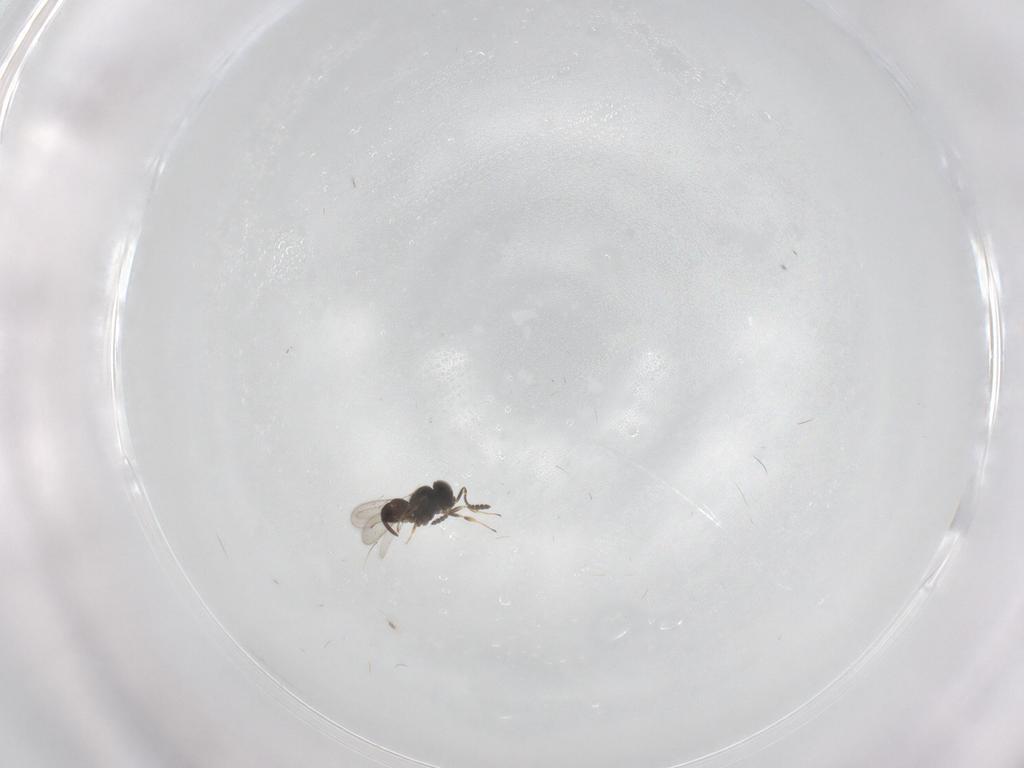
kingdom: Animalia
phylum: Arthropoda
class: Insecta
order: Hymenoptera
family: Scelionidae
